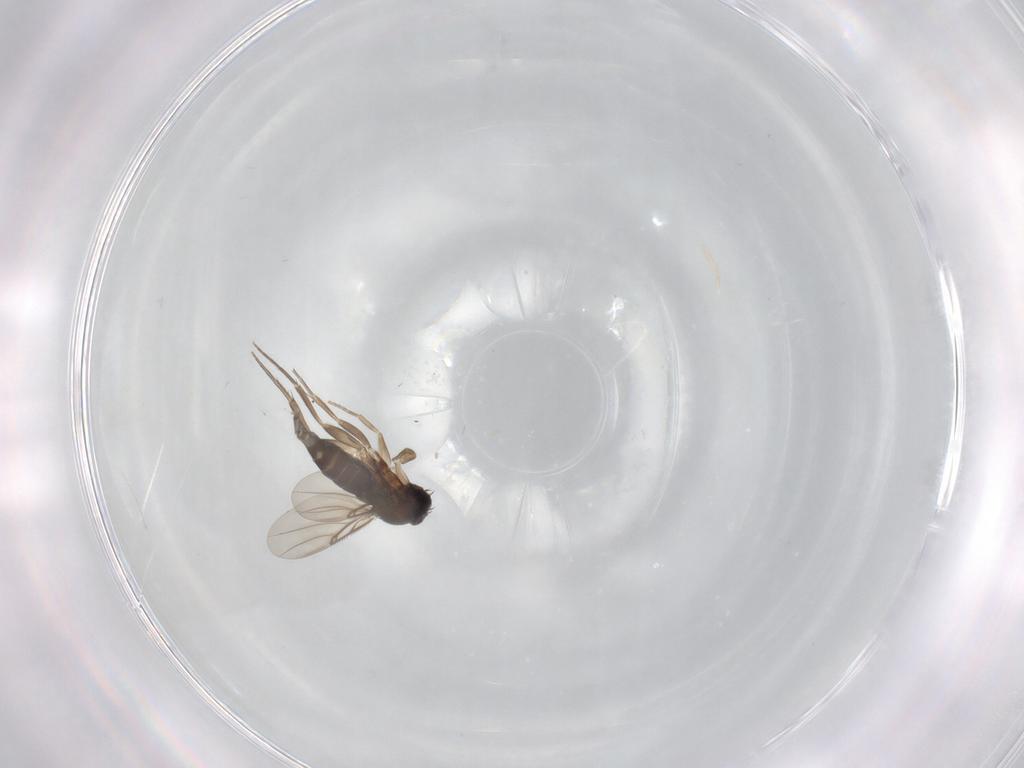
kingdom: Animalia
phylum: Arthropoda
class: Insecta
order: Diptera
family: Phoridae
